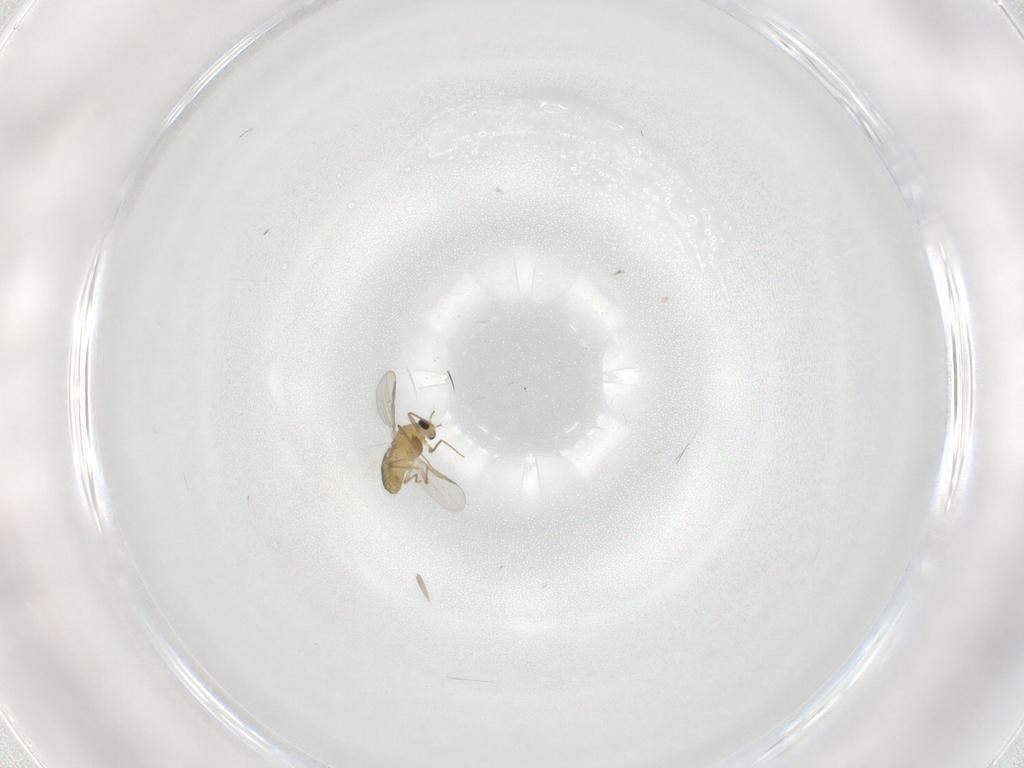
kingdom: Animalia
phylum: Arthropoda
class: Insecta
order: Diptera
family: Chironomidae
